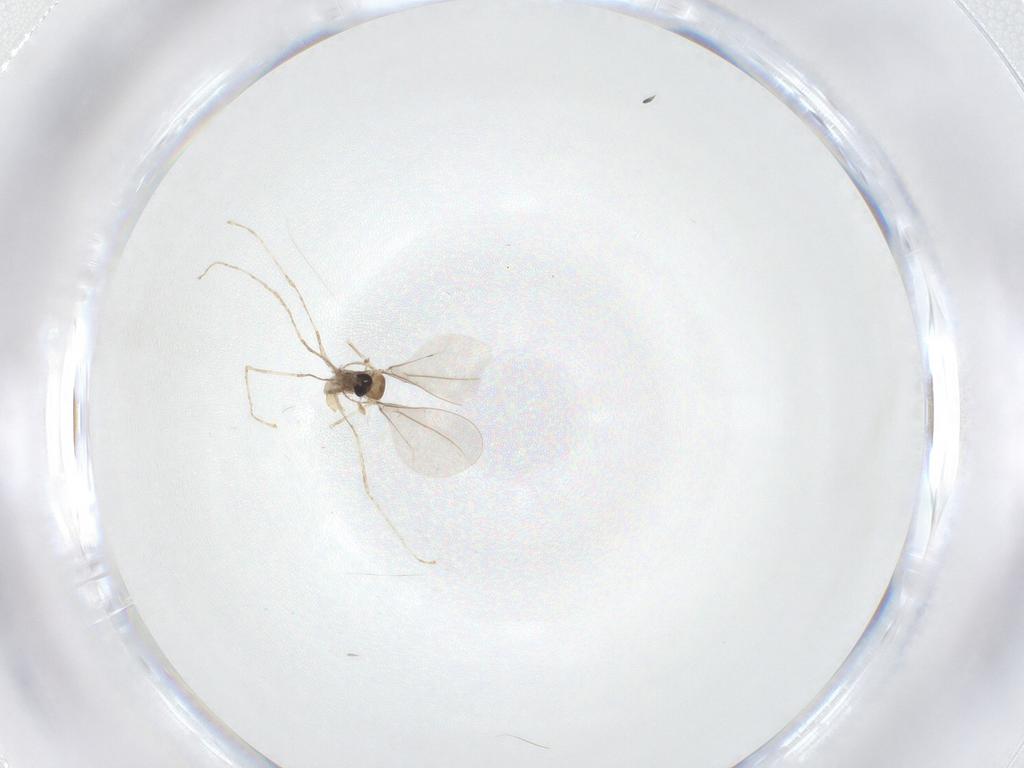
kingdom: Animalia
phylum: Arthropoda
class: Insecta
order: Diptera
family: Cecidomyiidae
